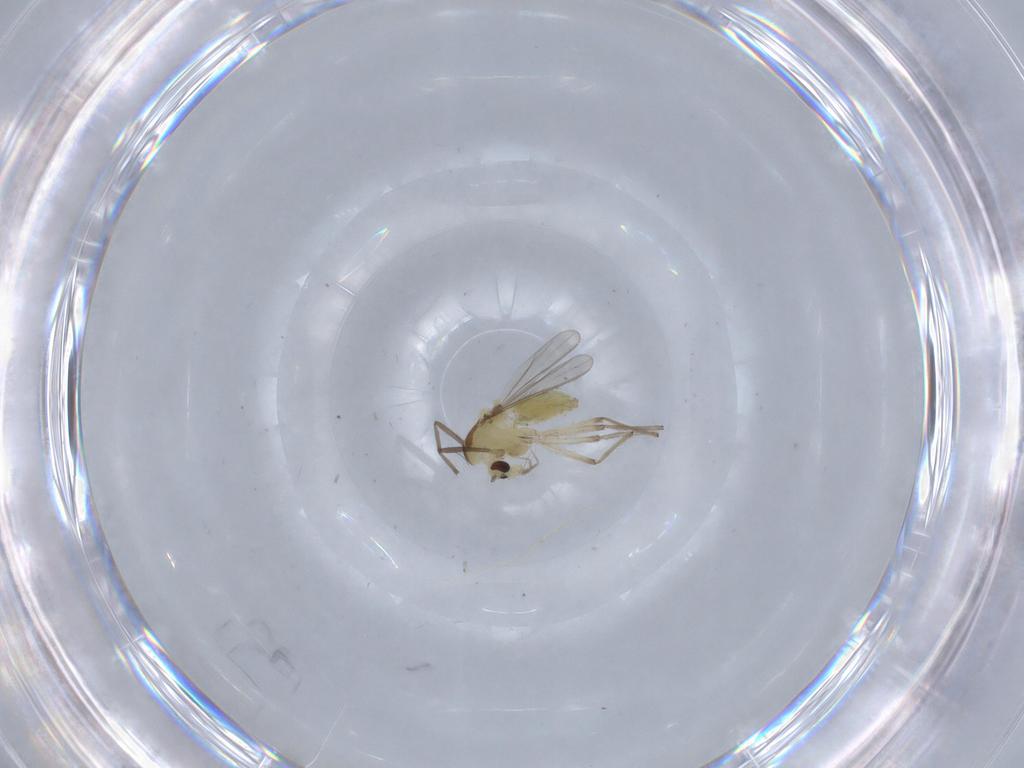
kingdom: Animalia
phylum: Arthropoda
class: Insecta
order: Diptera
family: Chironomidae
